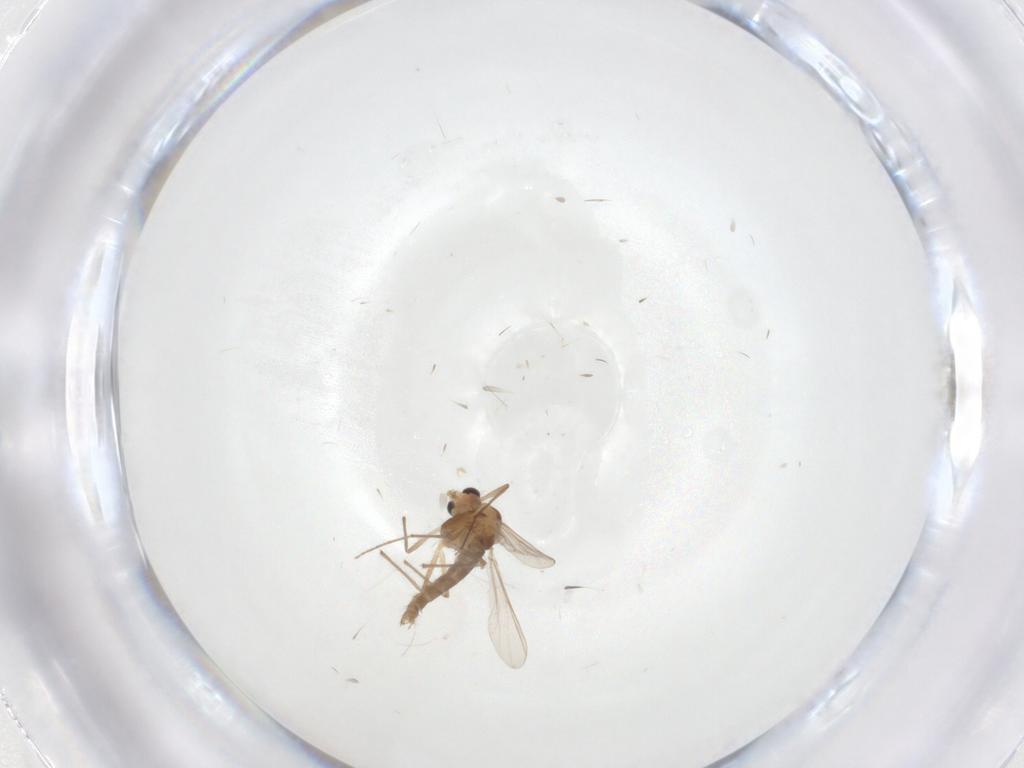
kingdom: Animalia
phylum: Arthropoda
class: Insecta
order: Diptera
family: Chironomidae
